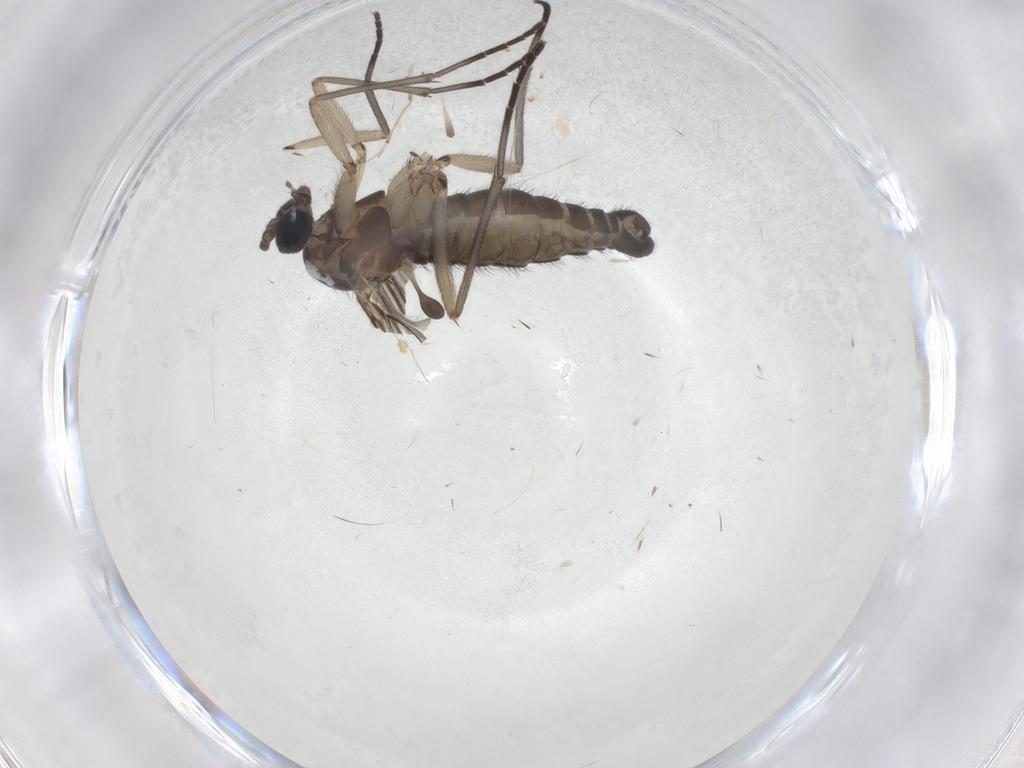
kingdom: Animalia
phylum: Arthropoda
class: Insecta
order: Diptera
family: Sciaridae
